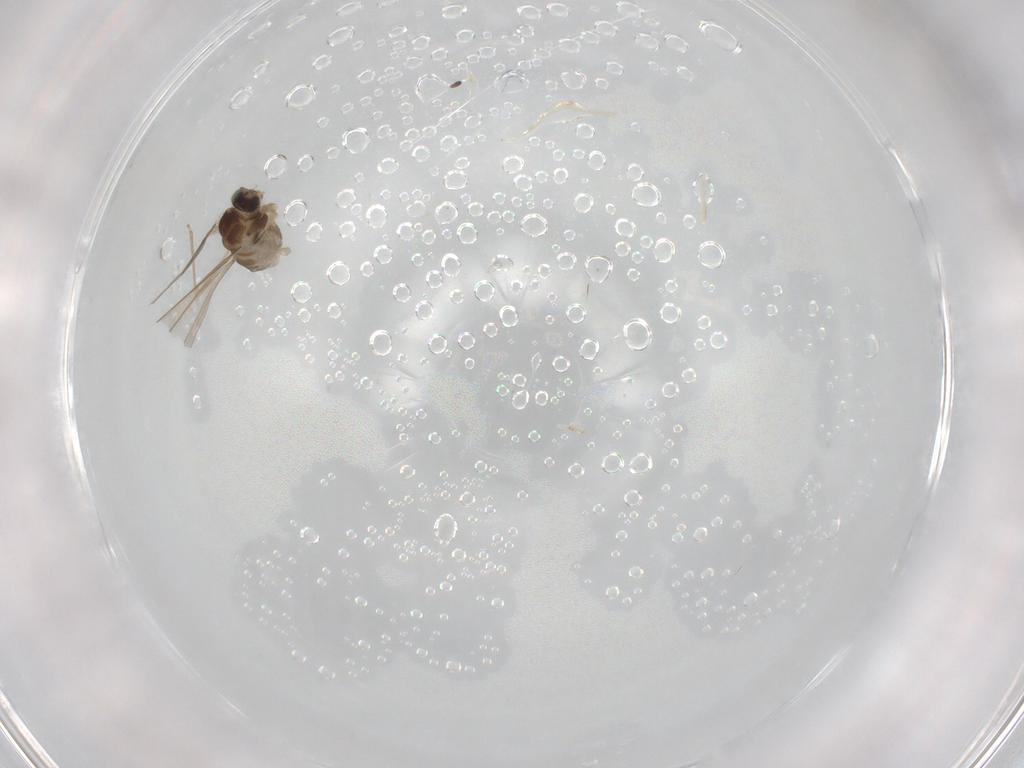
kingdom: Animalia
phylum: Arthropoda
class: Insecta
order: Diptera
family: Cecidomyiidae
